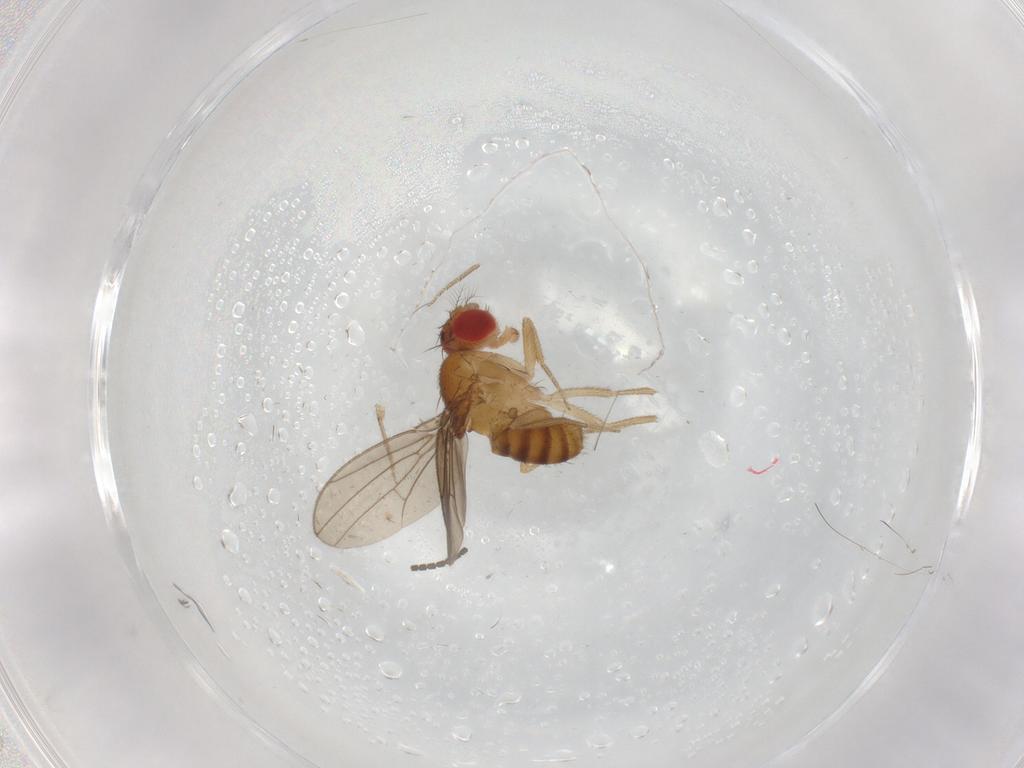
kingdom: Animalia
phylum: Arthropoda
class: Insecta
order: Diptera
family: Drosophilidae
